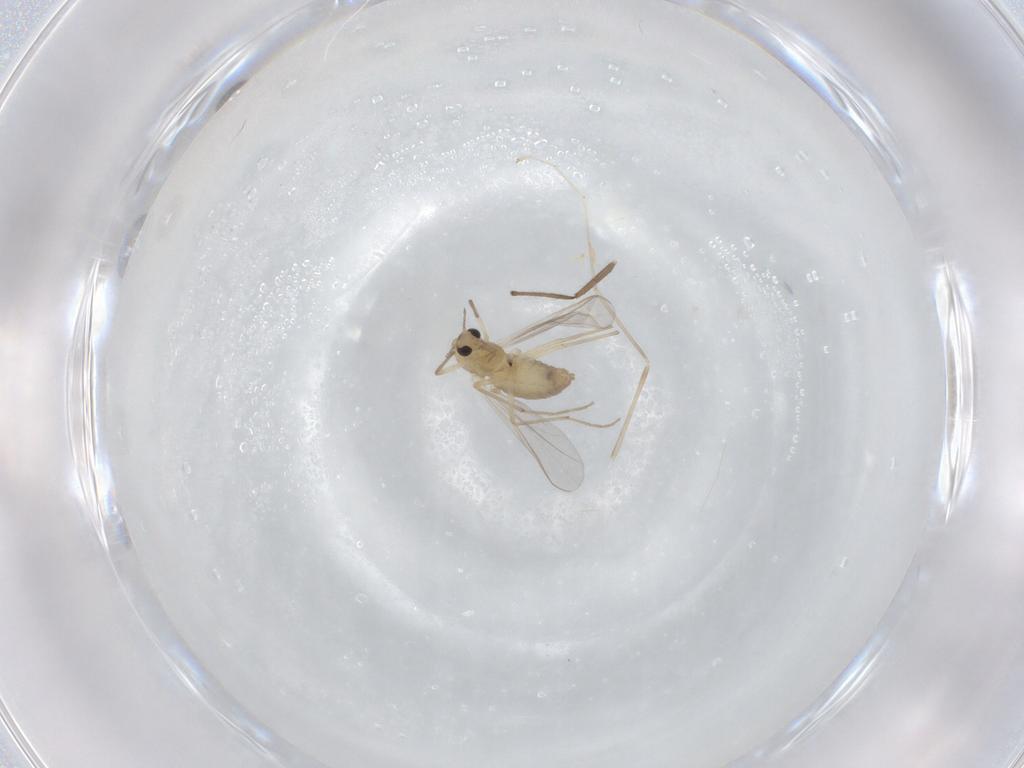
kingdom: Animalia
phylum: Arthropoda
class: Insecta
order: Diptera
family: Chironomidae
